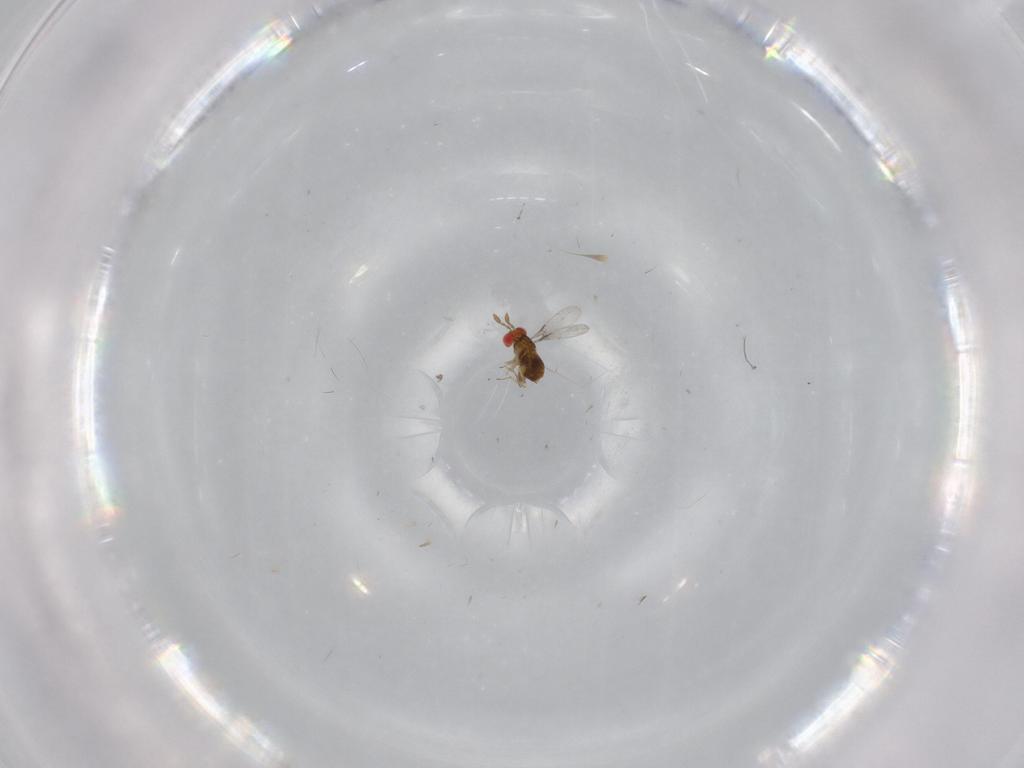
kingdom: Animalia
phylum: Arthropoda
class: Insecta
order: Hymenoptera
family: Trichogrammatidae
